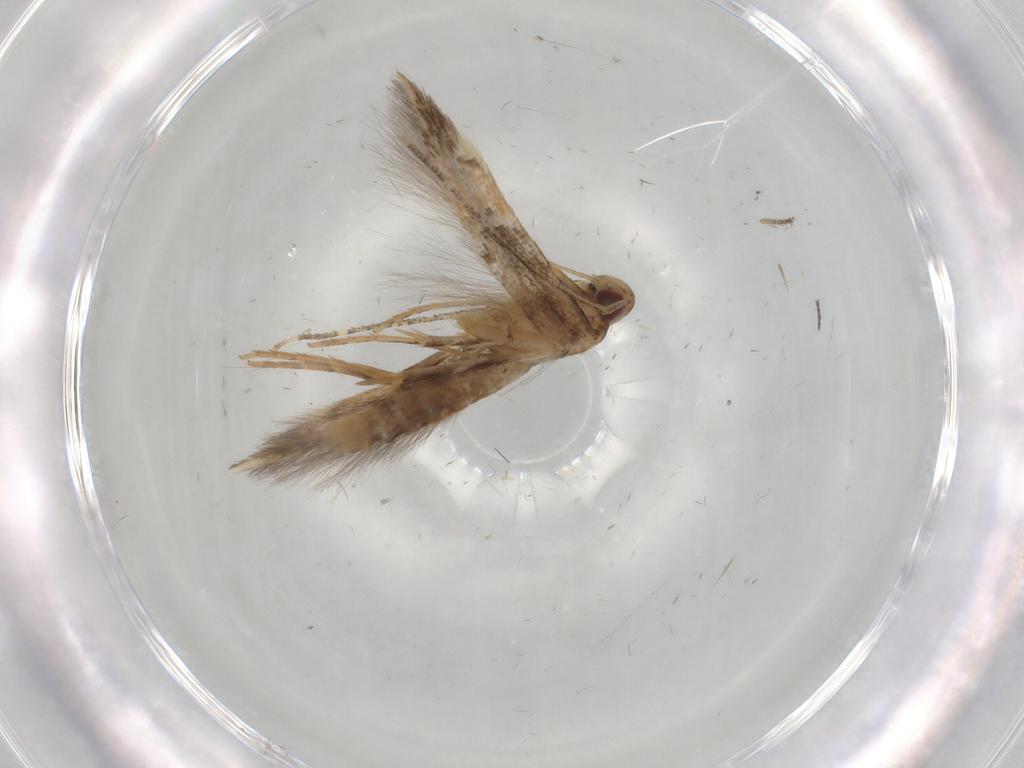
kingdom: Animalia
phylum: Arthropoda
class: Insecta
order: Lepidoptera
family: Cosmopterigidae
